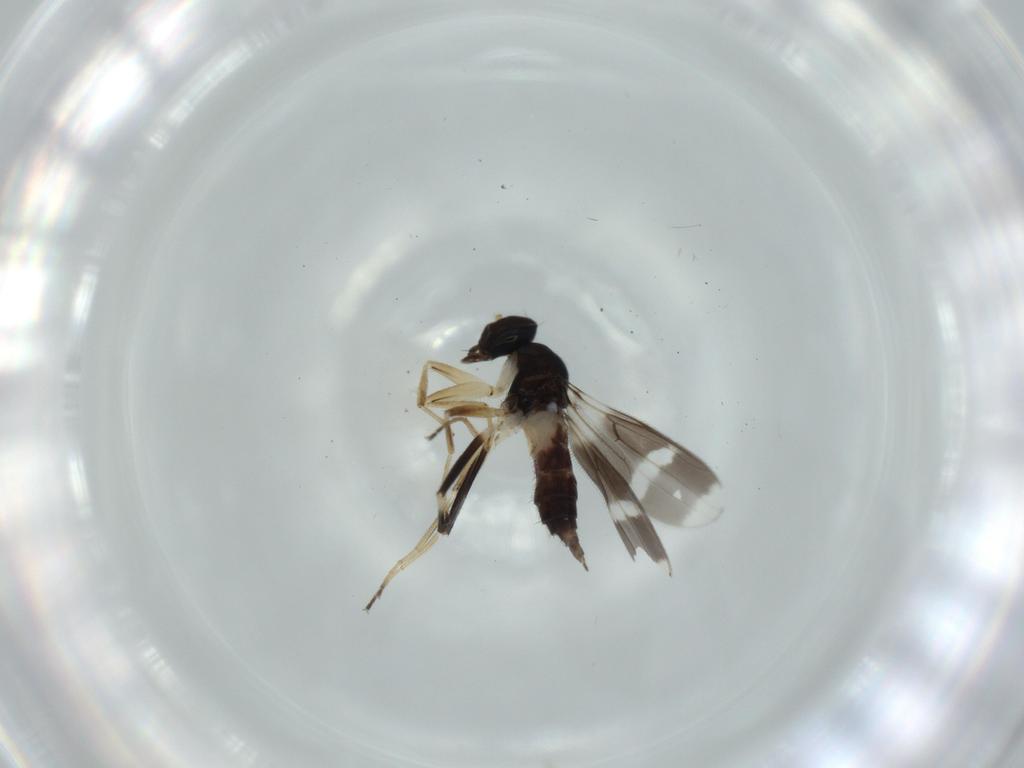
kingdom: Animalia
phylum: Arthropoda
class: Insecta
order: Diptera
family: Hybotidae
